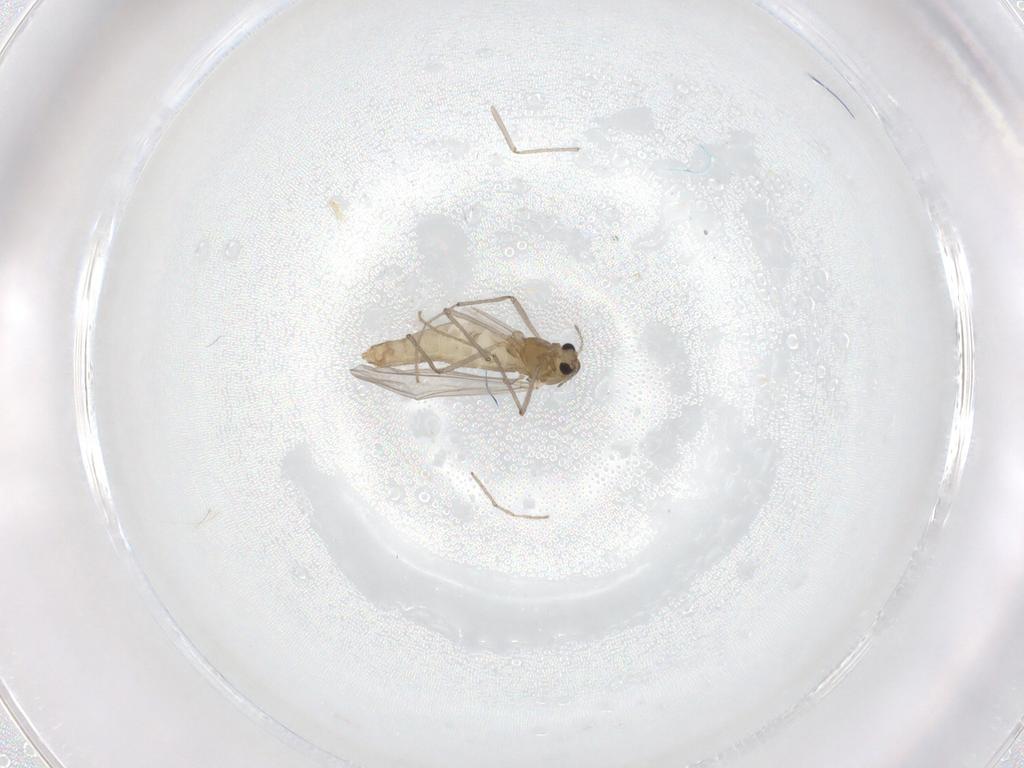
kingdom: Animalia
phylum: Arthropoda
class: Insecta
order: Diptera
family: Chironomidae
